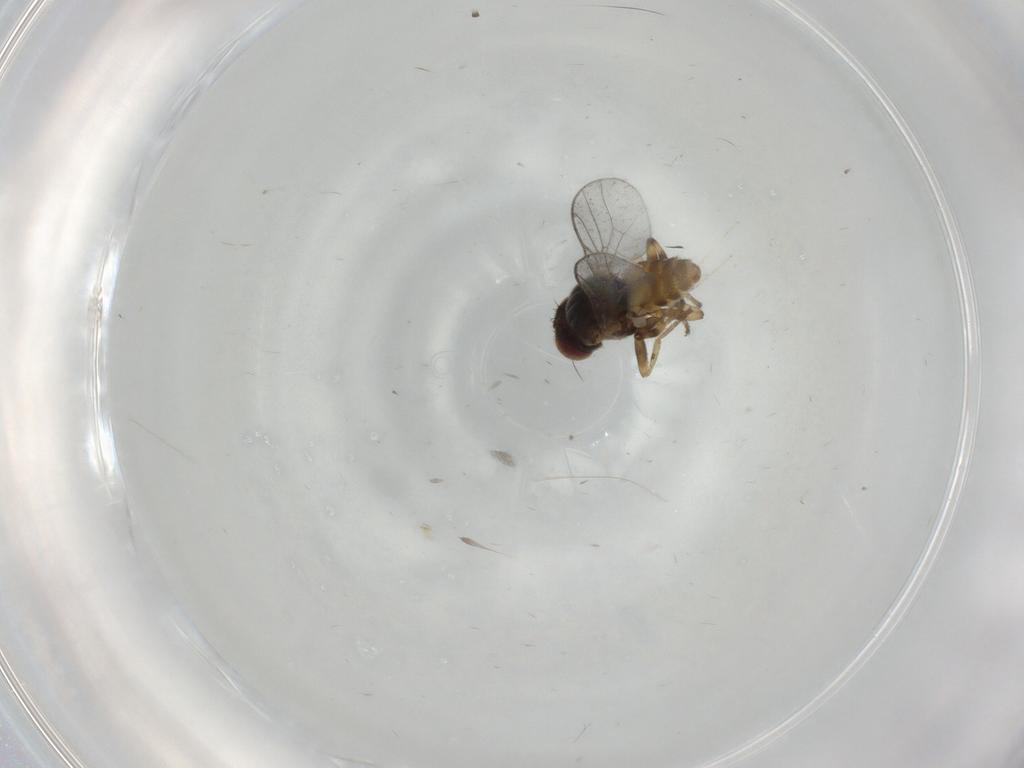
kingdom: Animalia
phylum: Arthropoda
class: Insecta
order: Diptera
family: Chloropidae
